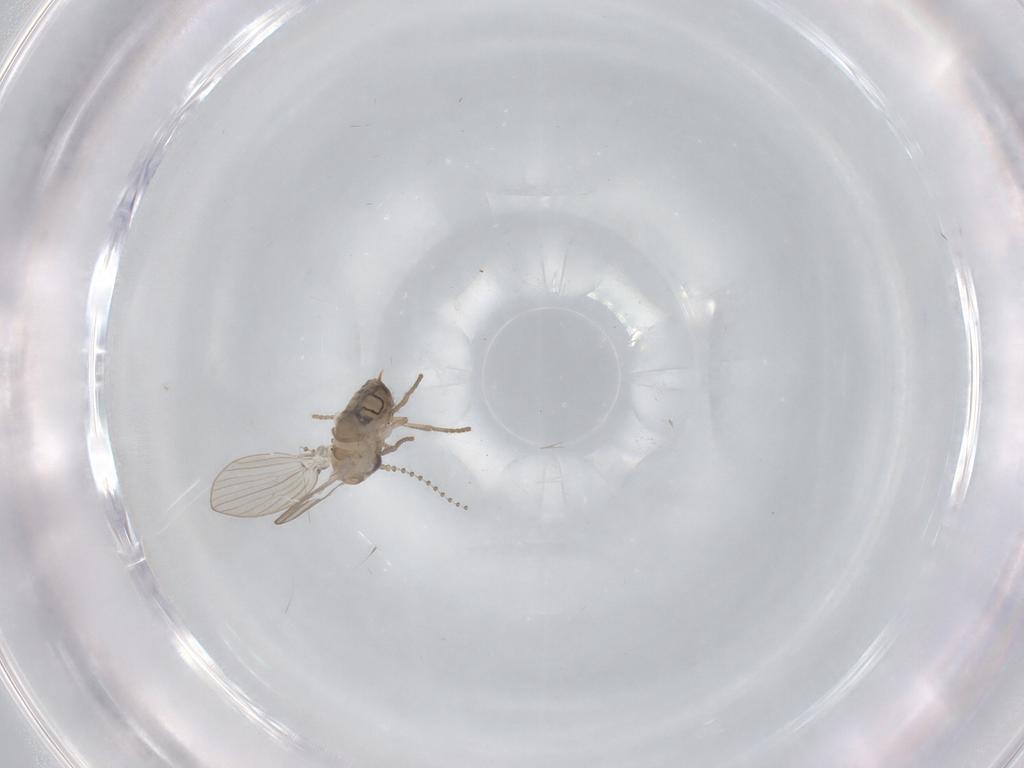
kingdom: Animalia
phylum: Arthropoda
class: Insecta
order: Diptera
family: Psychodidae
